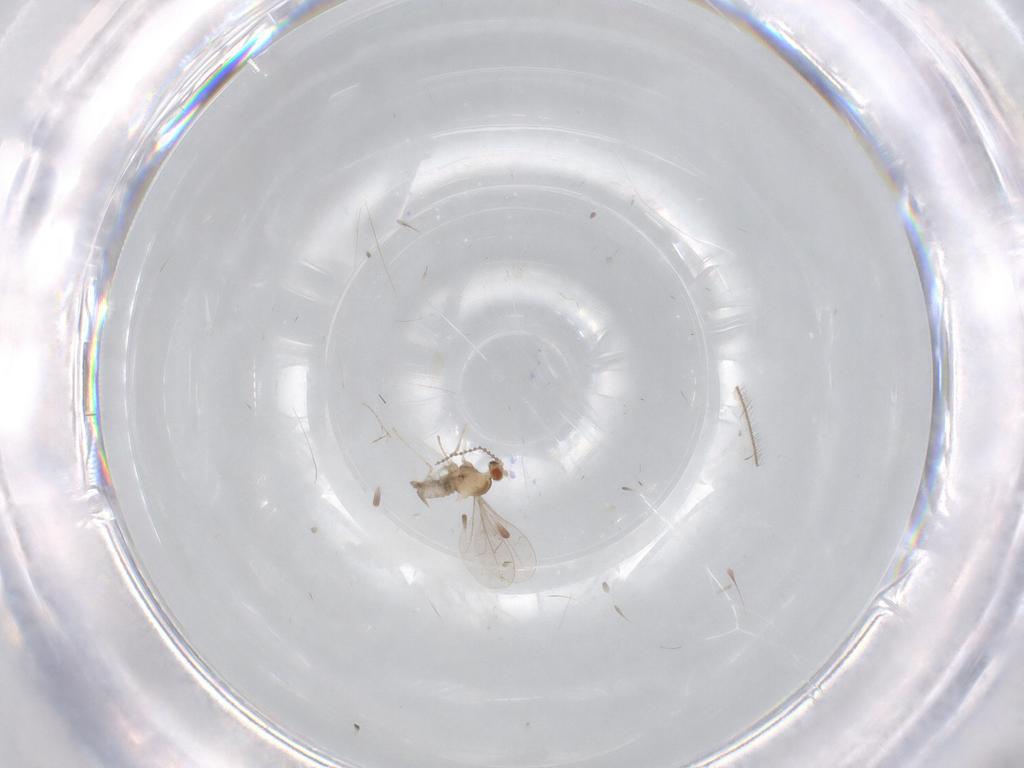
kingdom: Animalia
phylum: Arthropoda
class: Insecta
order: Diptera
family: Cecidomyiidae
